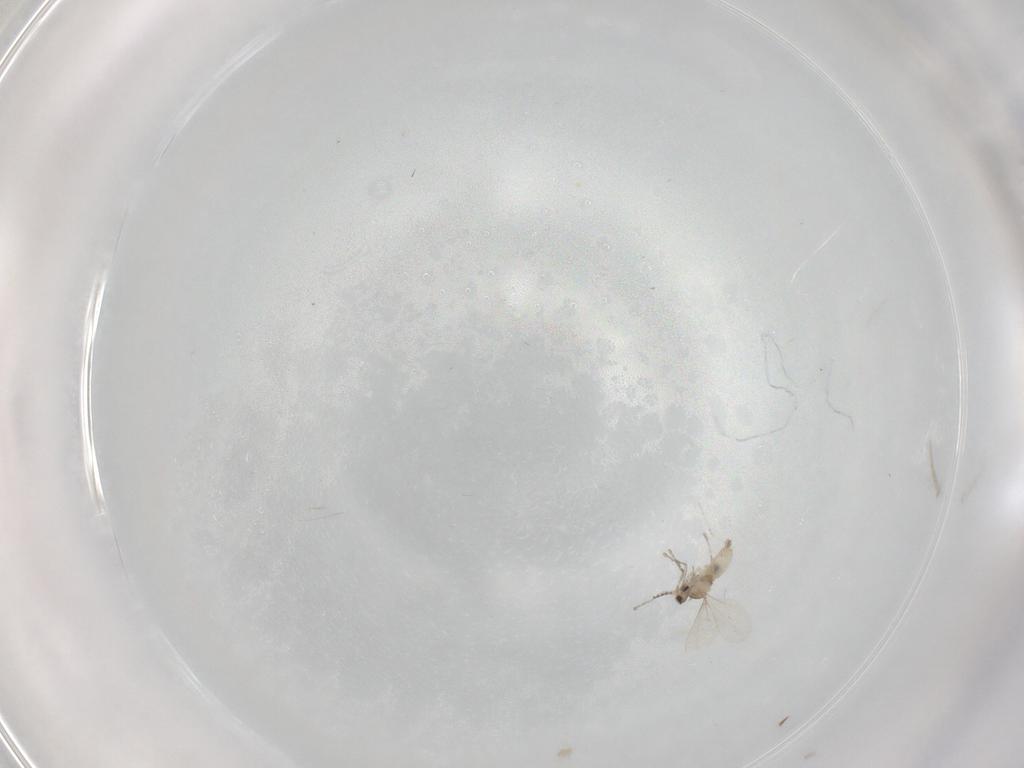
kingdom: Animalia
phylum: Arthropoda
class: Insecta
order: Diptera
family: Cecidomyiidae
